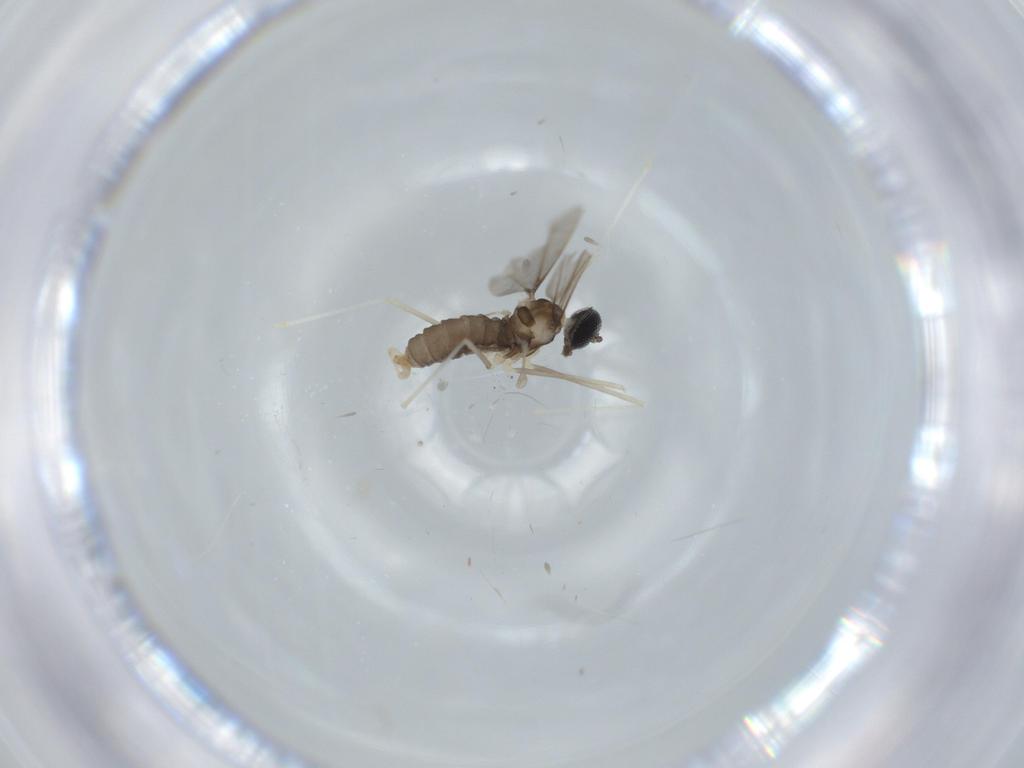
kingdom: Animalia
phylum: Arthropoda
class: Insecta
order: Diptera
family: Cecidomyiidae
